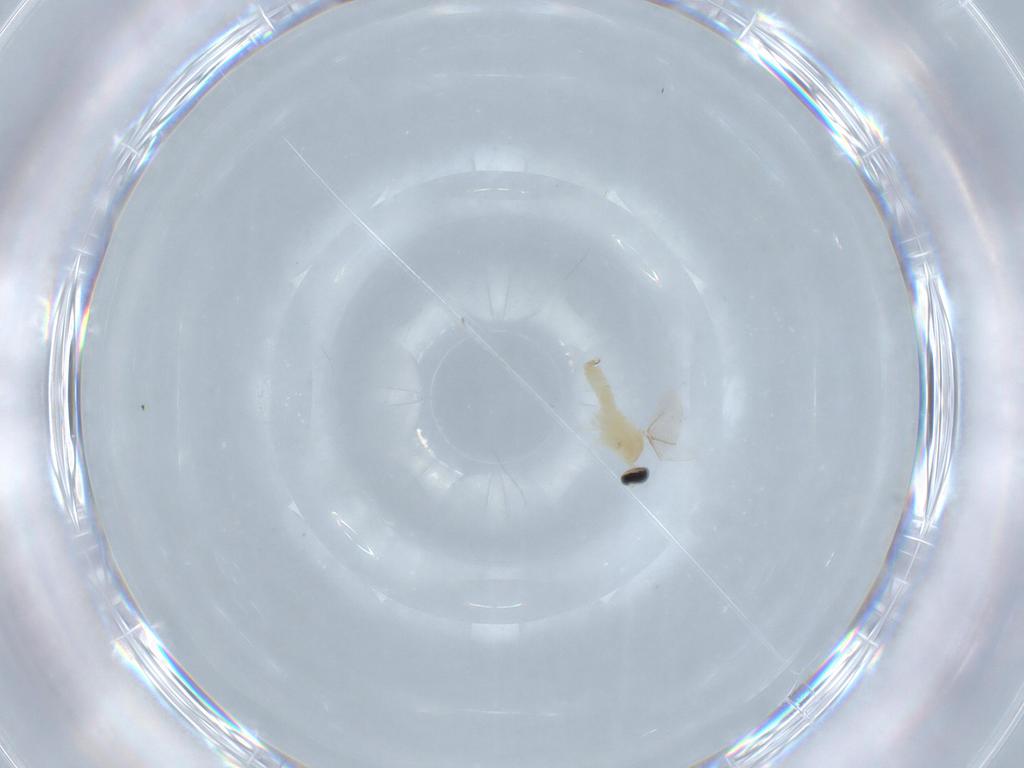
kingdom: Animalia
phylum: Arthropoda
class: Insecta
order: Diptera
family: Cecidomyiidae
